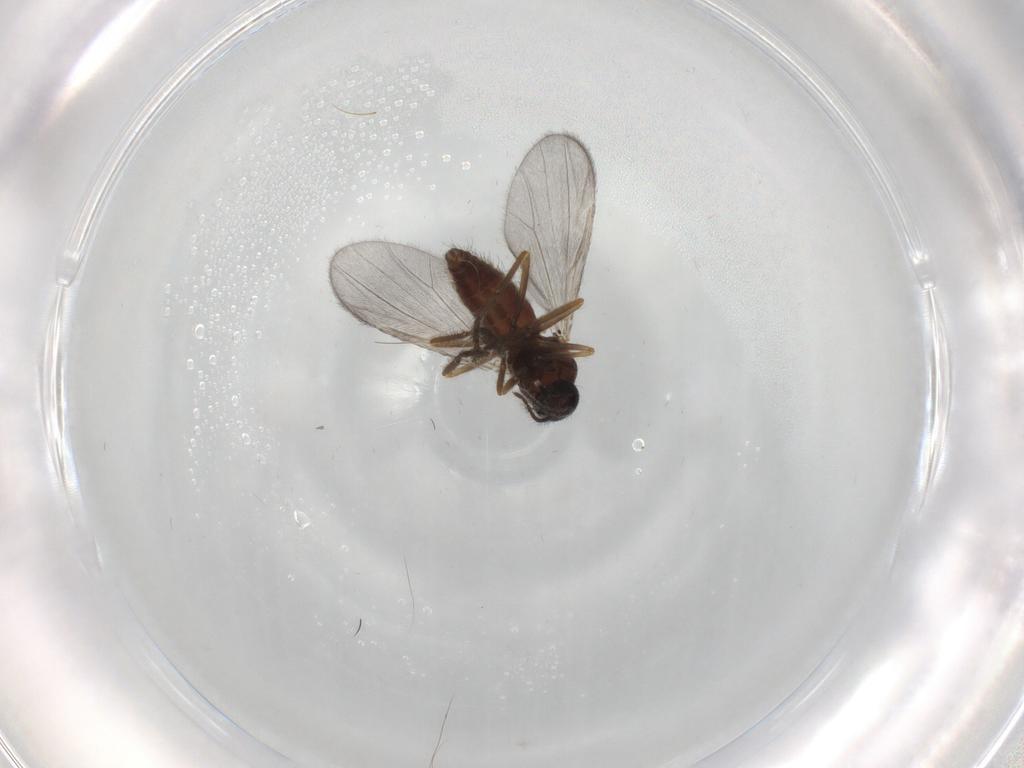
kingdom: Animalia
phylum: Arthropoda
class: Insecta
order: Diptera
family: Ceratopogonidae
